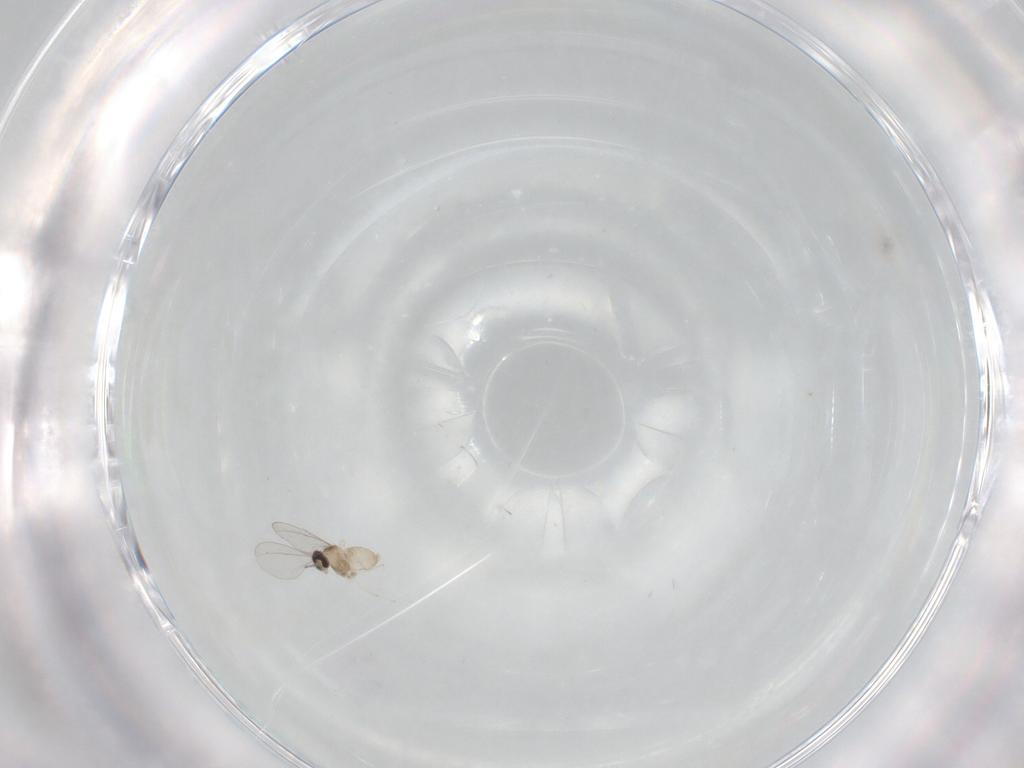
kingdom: Animalia
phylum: Arthropoda
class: Insecta
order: Diptera
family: Cecidomyiidae
